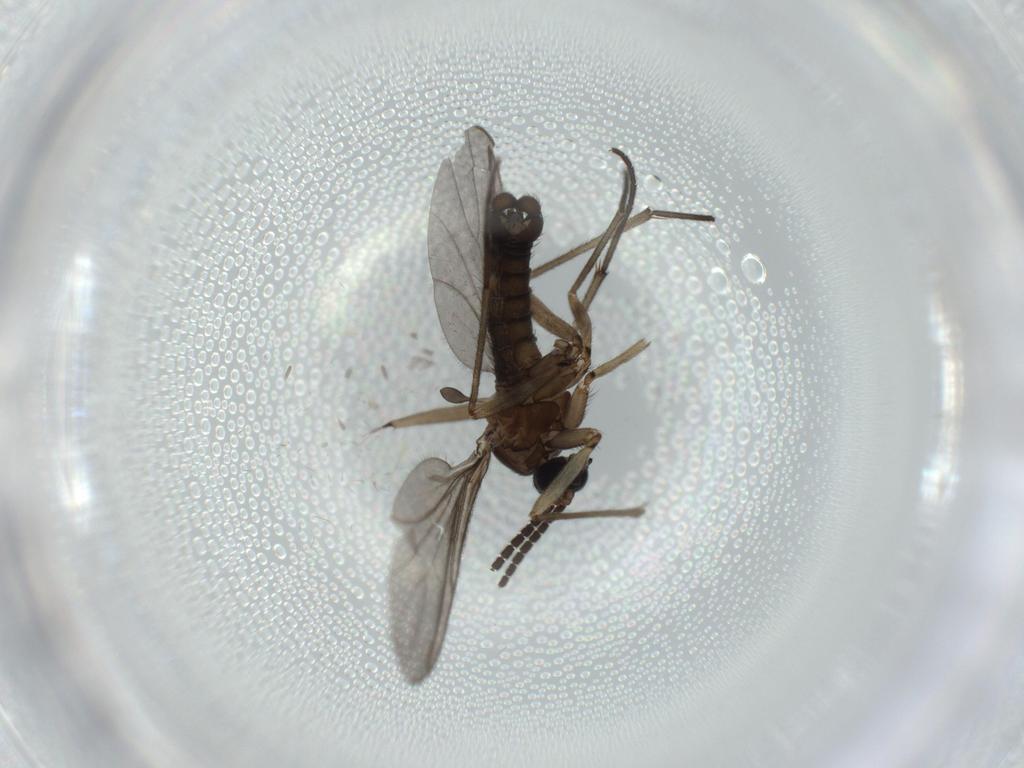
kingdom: Animalia
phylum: Arthropoda
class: Insecta
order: Diptera
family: Sciaridae
